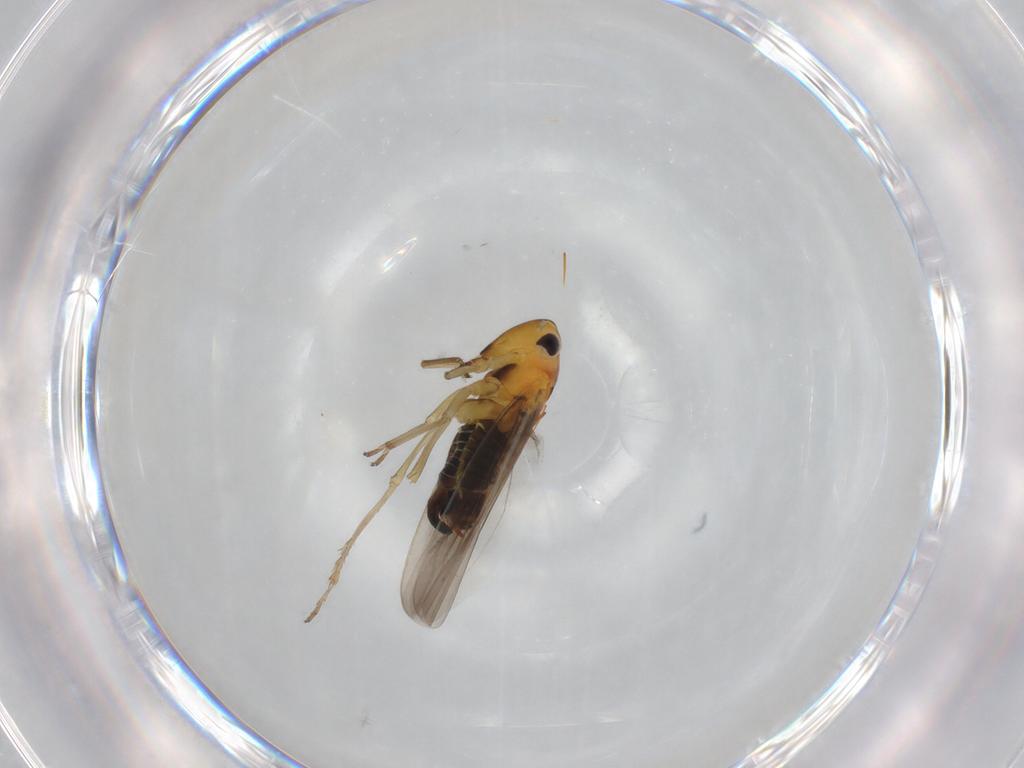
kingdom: Animalia
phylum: Arthropoda
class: Insecta
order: Hemiptera
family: Cicadellidae
